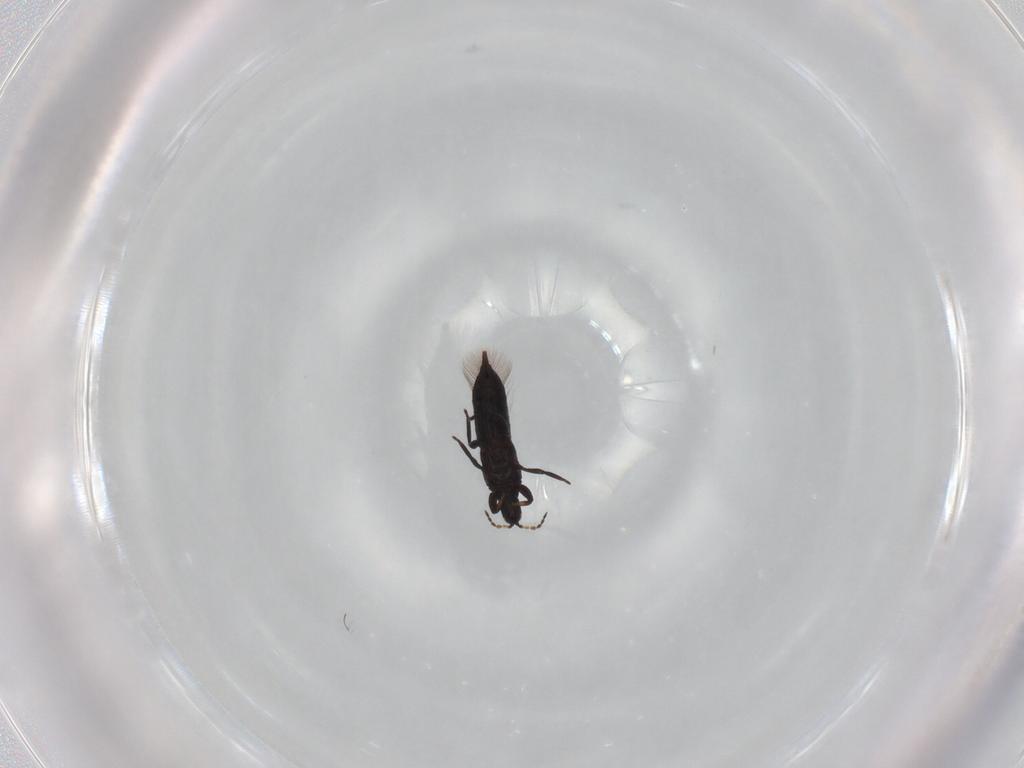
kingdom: Animalia
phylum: Arthropoda
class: Insecta
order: Thysanoptera
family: Phlaeothripidae
